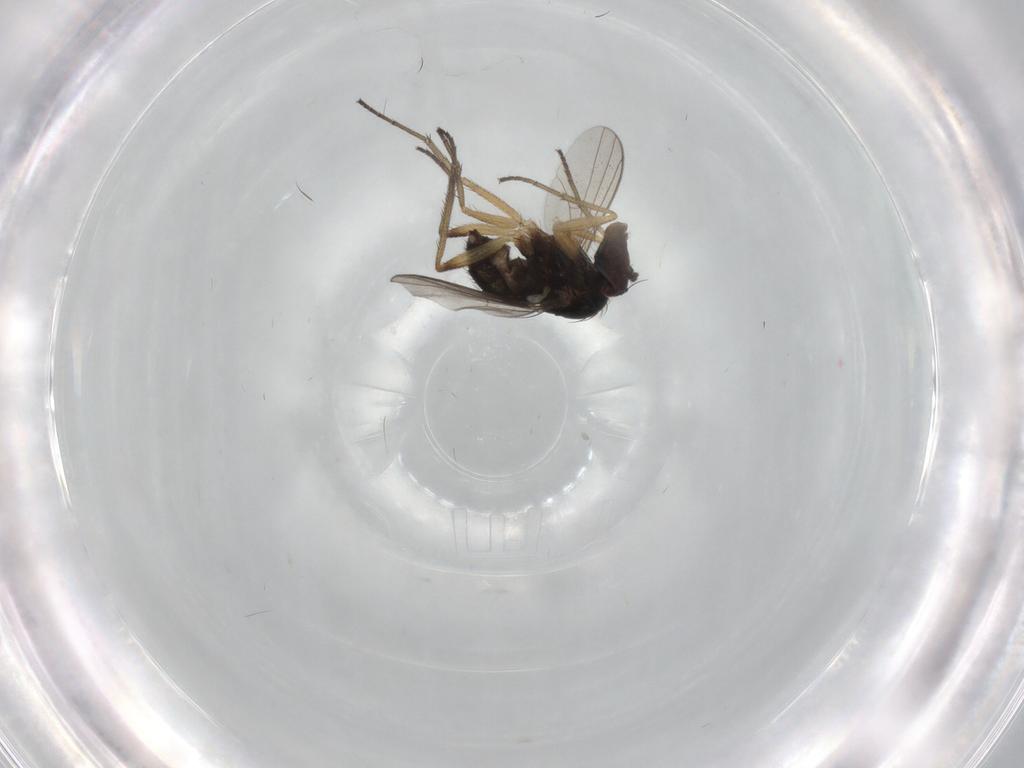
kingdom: Animalia
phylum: Arthropoda
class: Insecta
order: Diptera
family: Dolichopodidae
